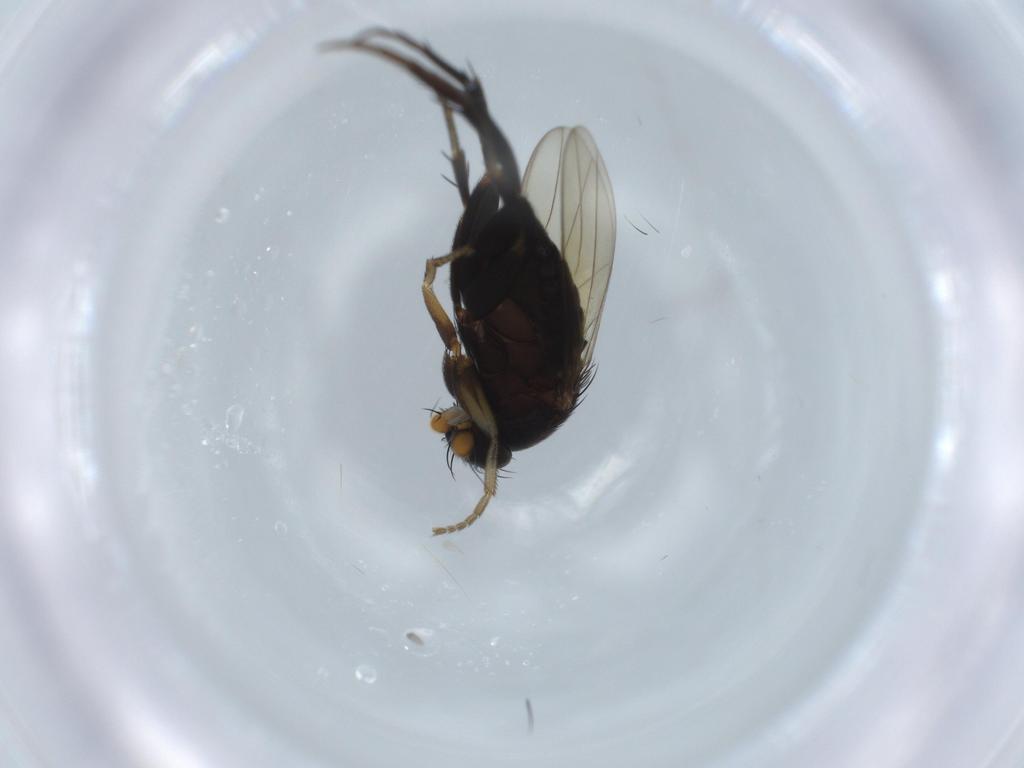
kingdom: Animalia
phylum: Arthropoda
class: Insecta
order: Diptera
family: Phoridae
